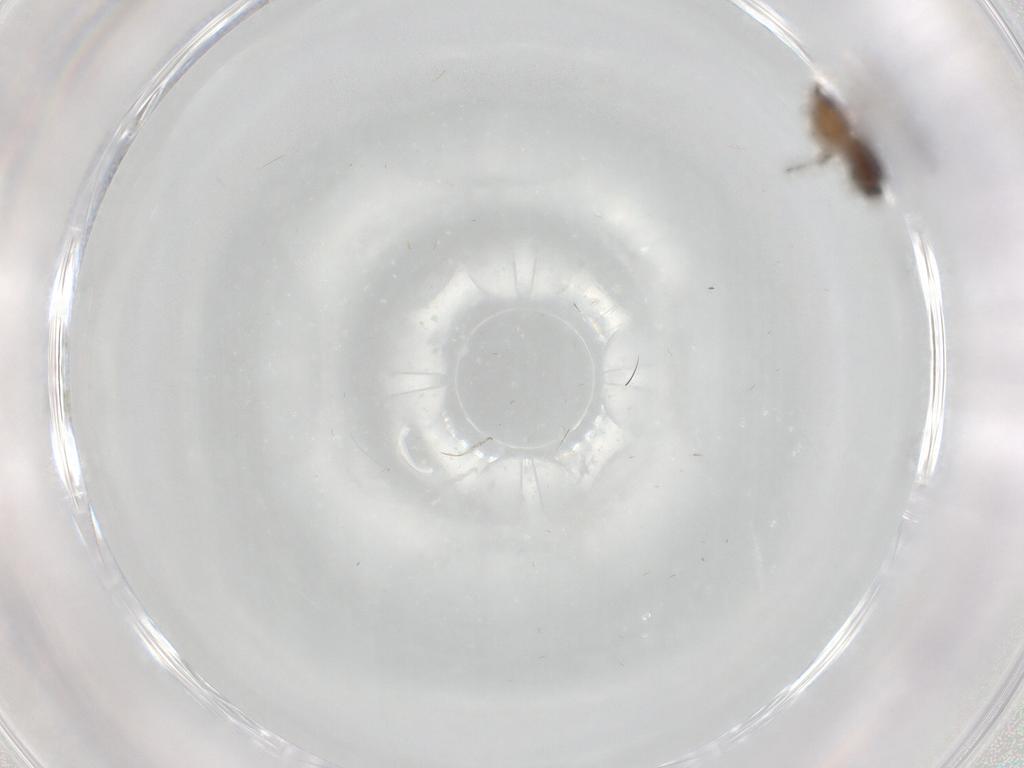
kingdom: Animalia
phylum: Arthropoda
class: Insecta
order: Diptera
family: Ceratopogonidae
